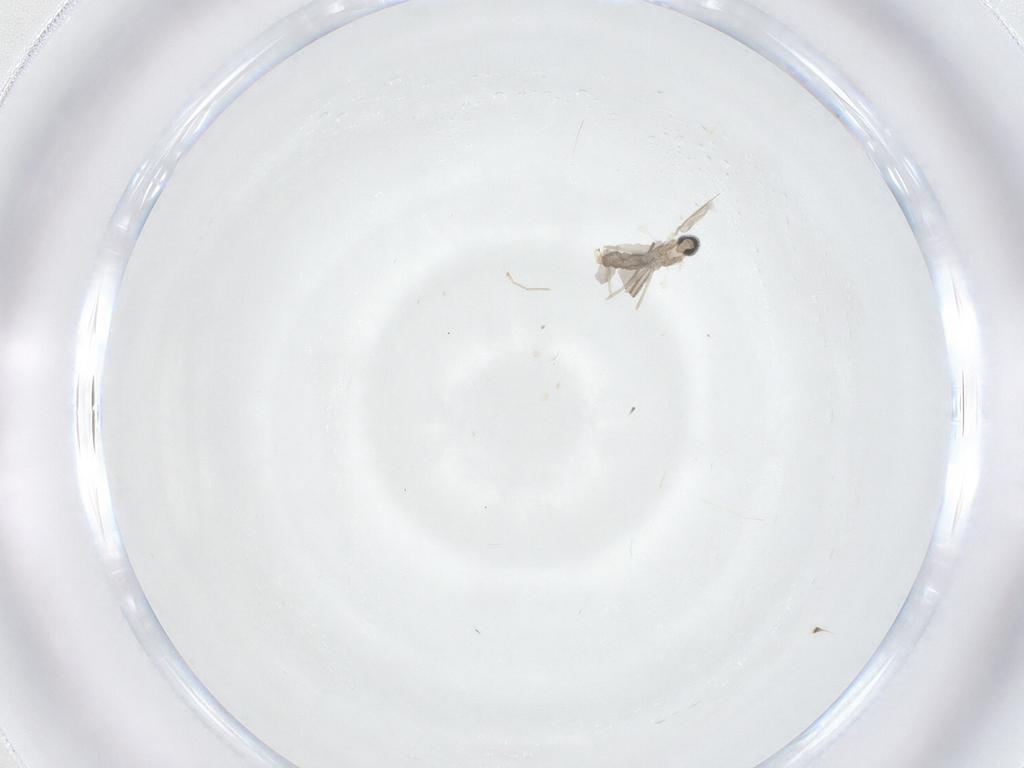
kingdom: Animalia
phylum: Arthropoda
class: Insecta
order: Diptera
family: Cecidomyiidae
